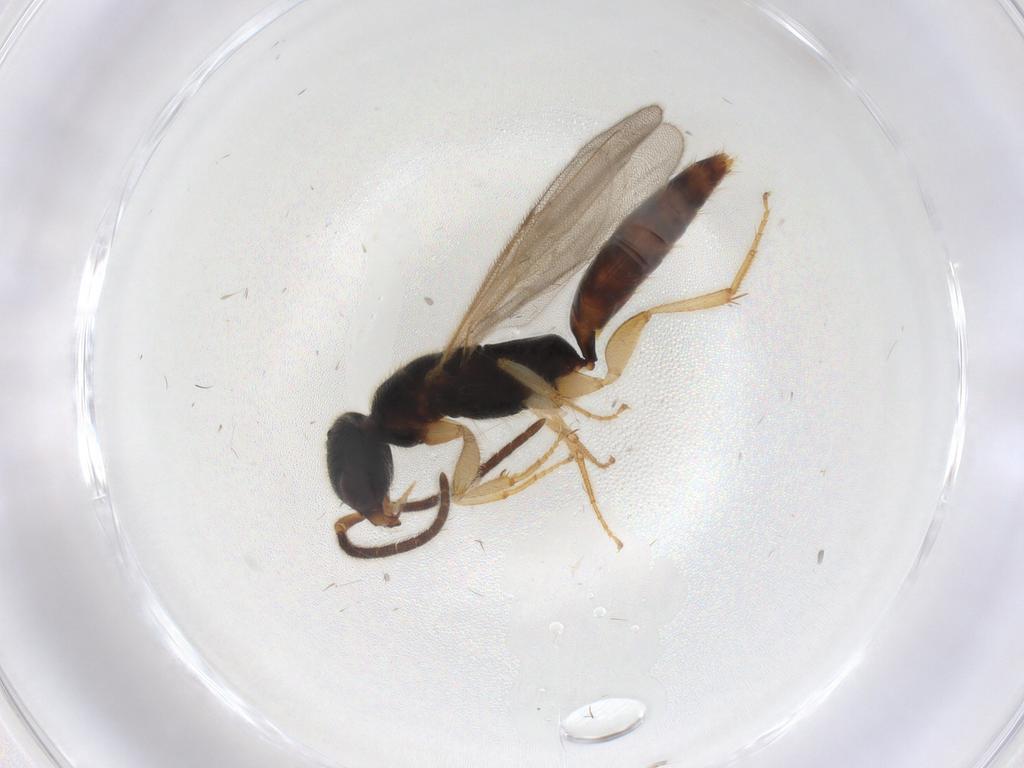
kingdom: Animalia
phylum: Arthropoda
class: Insecta
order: Hymenoptera
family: Bethylidae
